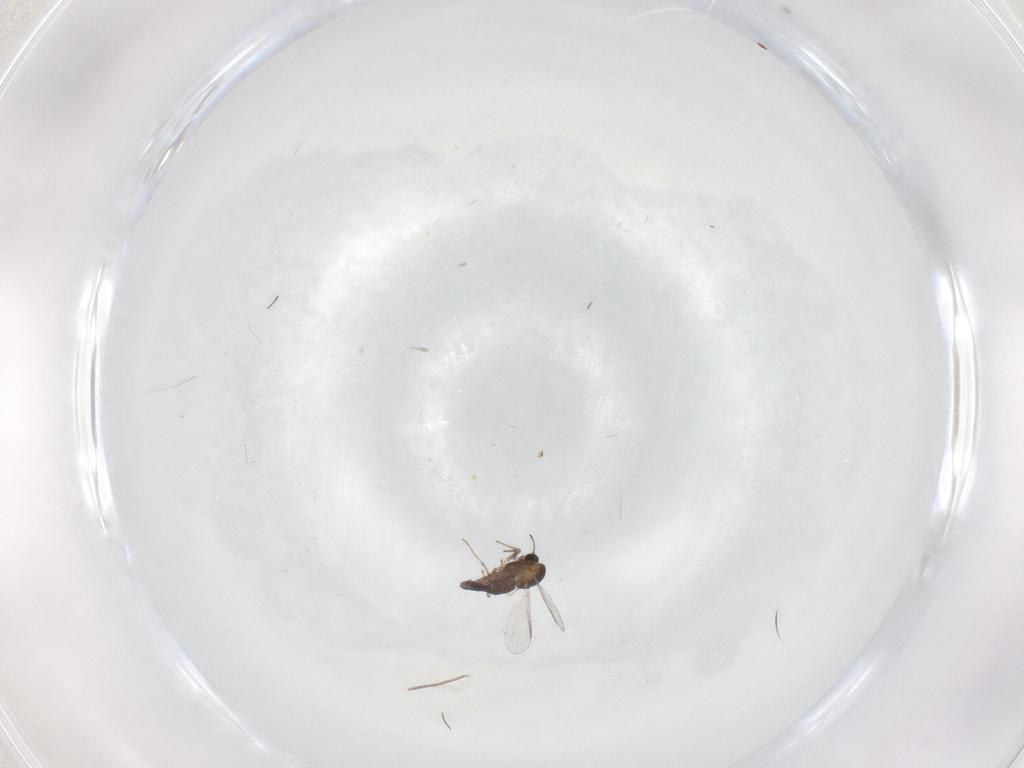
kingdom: Animalia
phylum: Arthropoda
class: Insecta
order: Diptera
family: Chironomidae
